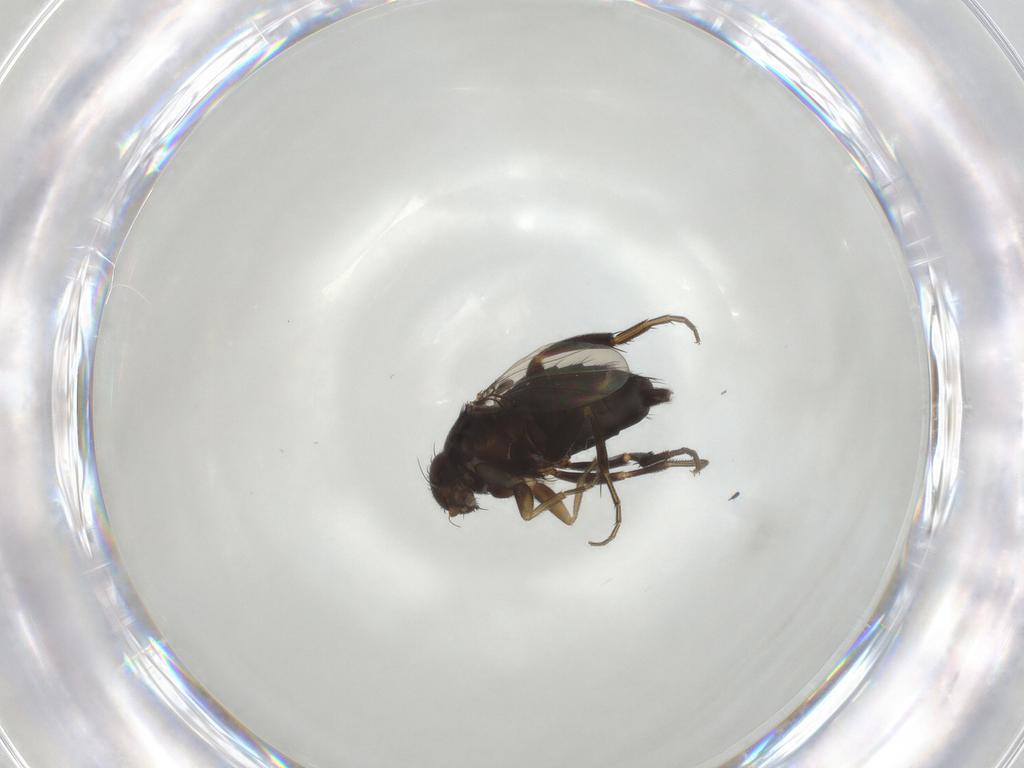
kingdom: Animalia
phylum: Arthropoda
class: Insecta
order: Diptera
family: Phoridae
